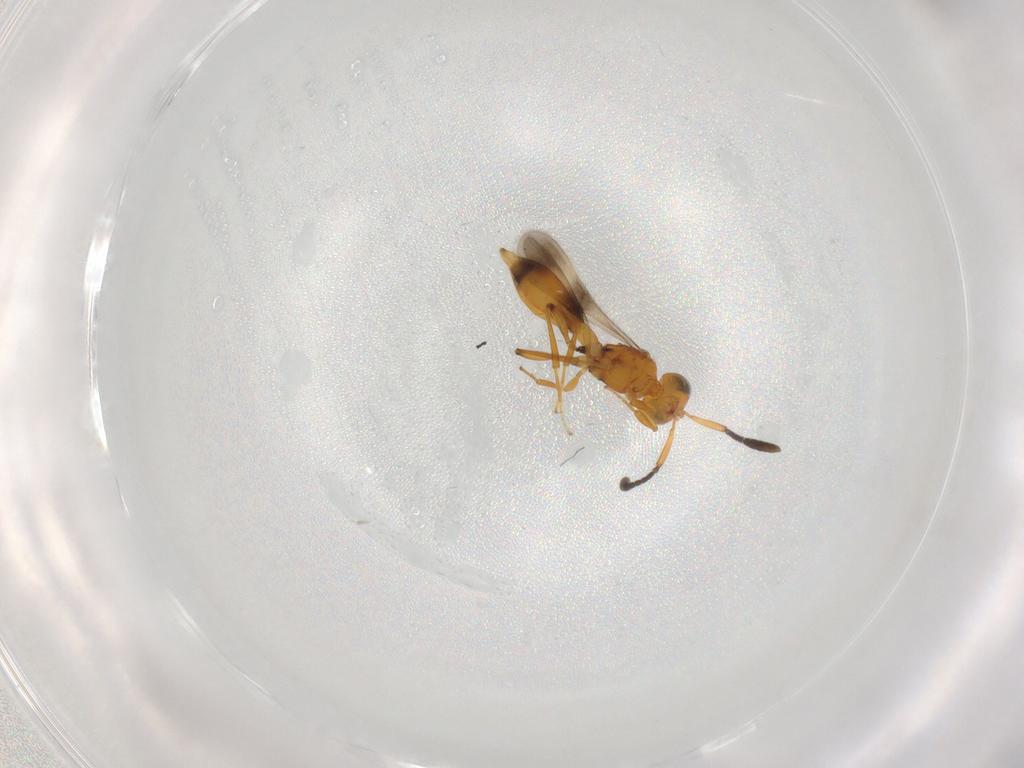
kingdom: Animalia
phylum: Arthropoda
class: Insecta
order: Hymenoptera
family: Scelionidae
